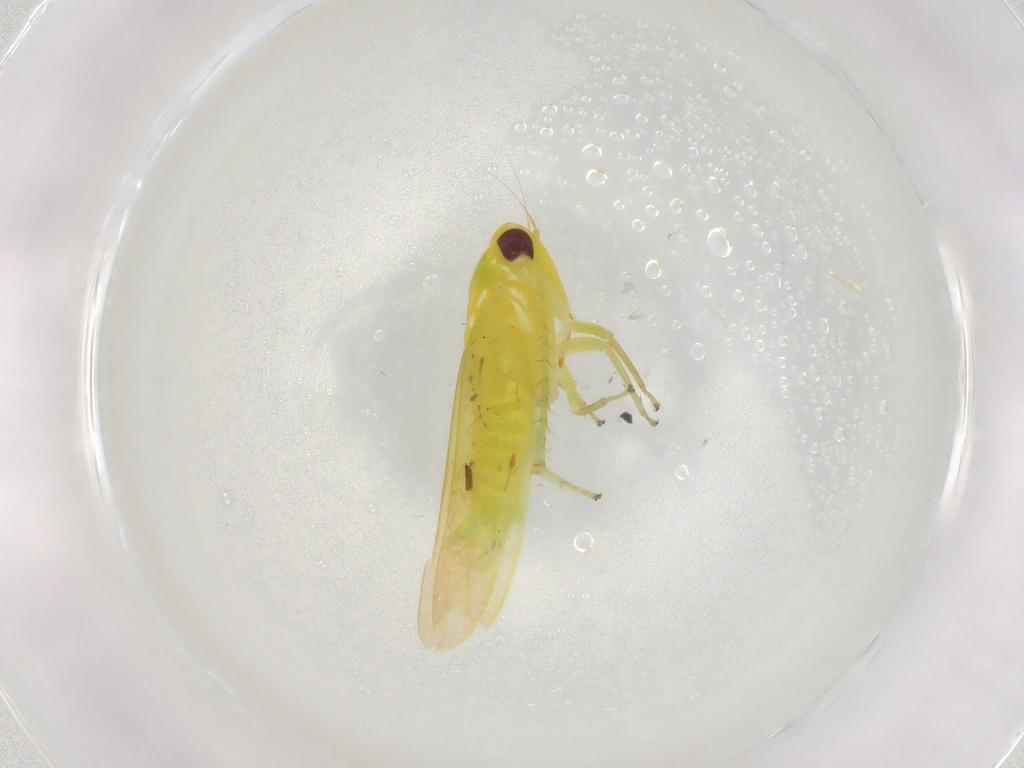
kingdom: Animalia
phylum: Arthropoda
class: Insecta
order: Hemiptera
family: Cicadellidae
